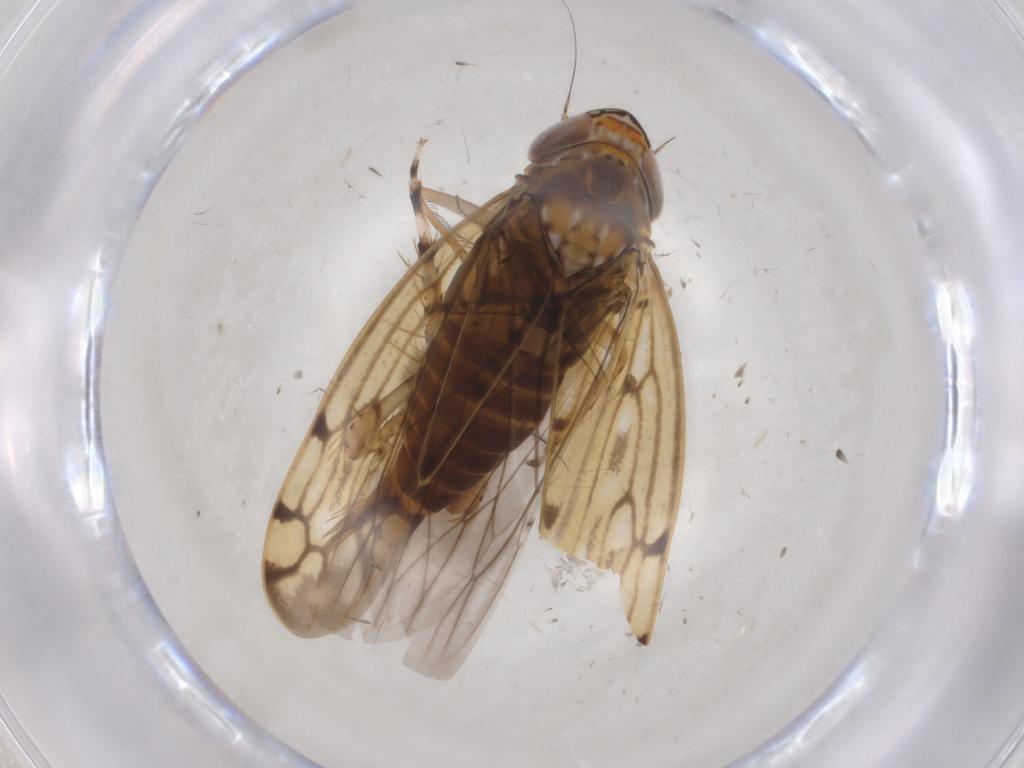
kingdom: Animalia
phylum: Arthropoda
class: Insecta
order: Hemiptera
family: Cicadellidae
